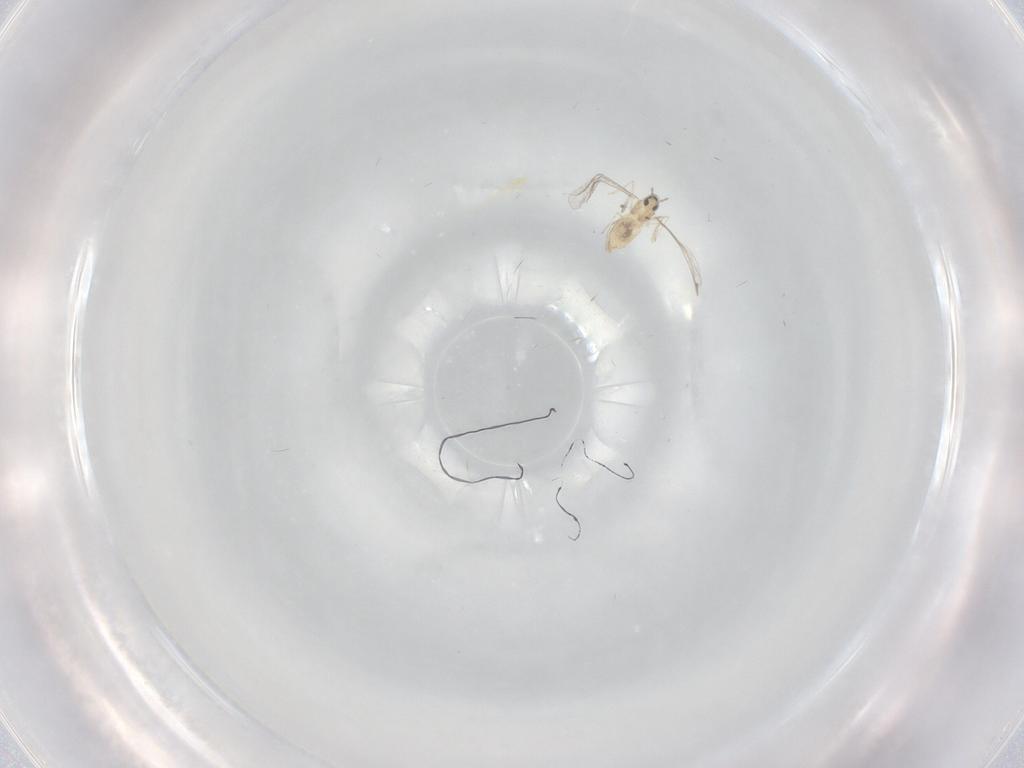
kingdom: Animalia
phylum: Arthropoda
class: Insecta
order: Diptera
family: Cecidomyiidae
